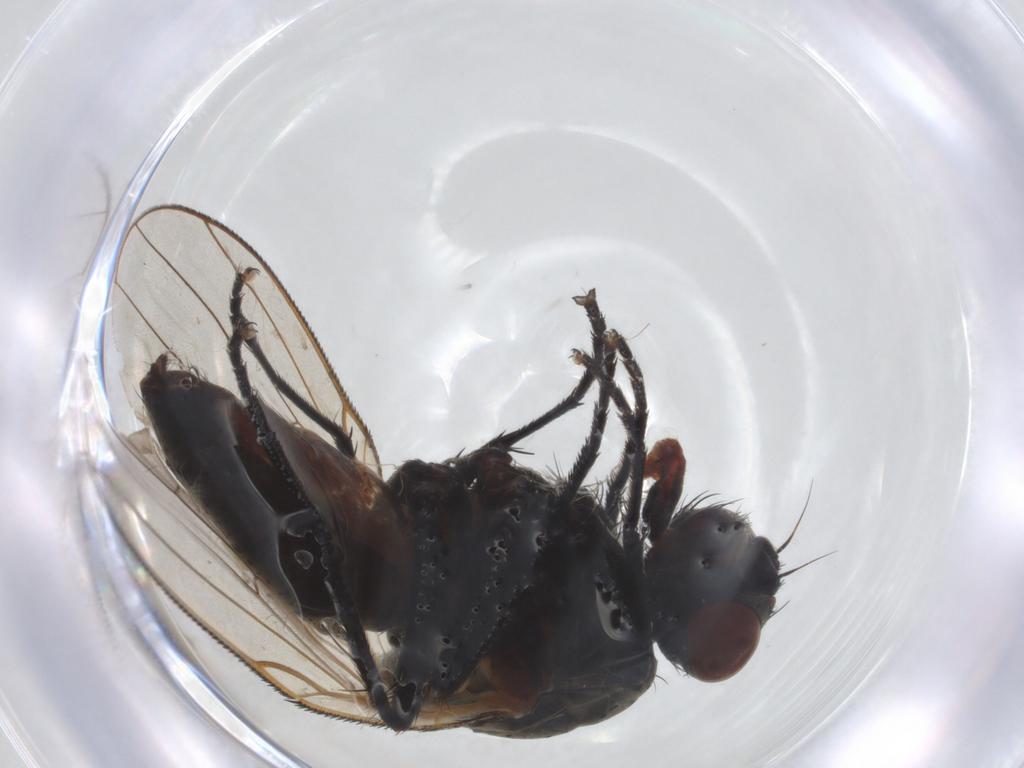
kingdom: Animalia
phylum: Arthropoda
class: Insecta
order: Diptera
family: Anthomyiidae
